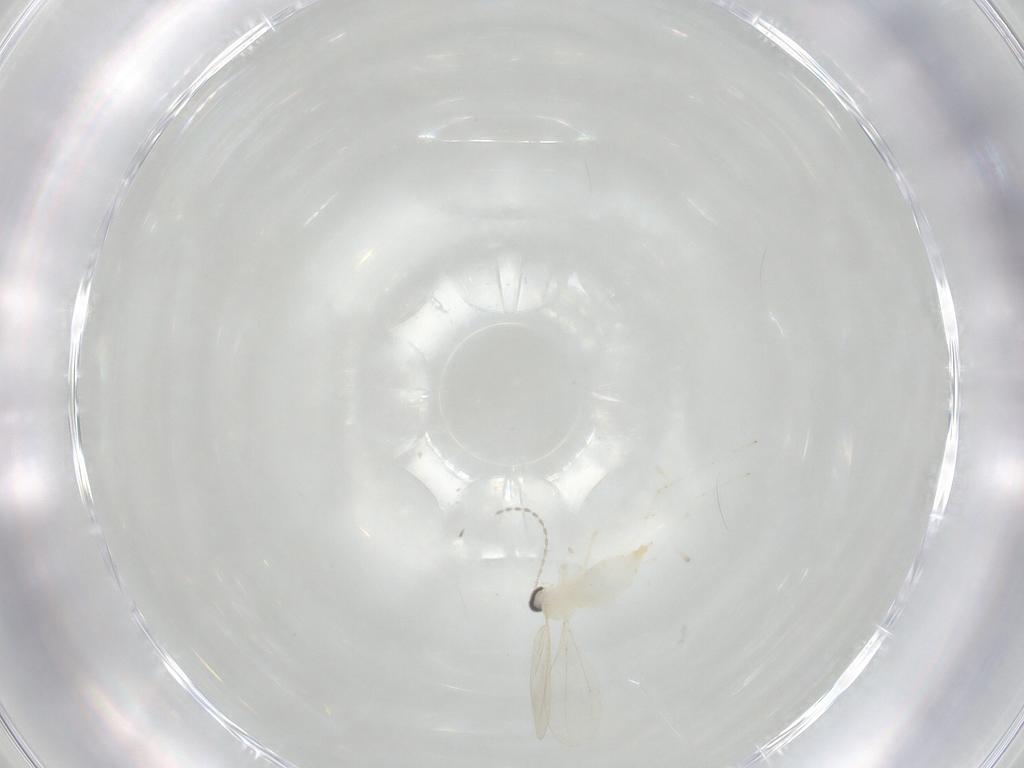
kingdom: Animalia
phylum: Arthropoda
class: Insecta
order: Diptera
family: Cecidomyiidae
